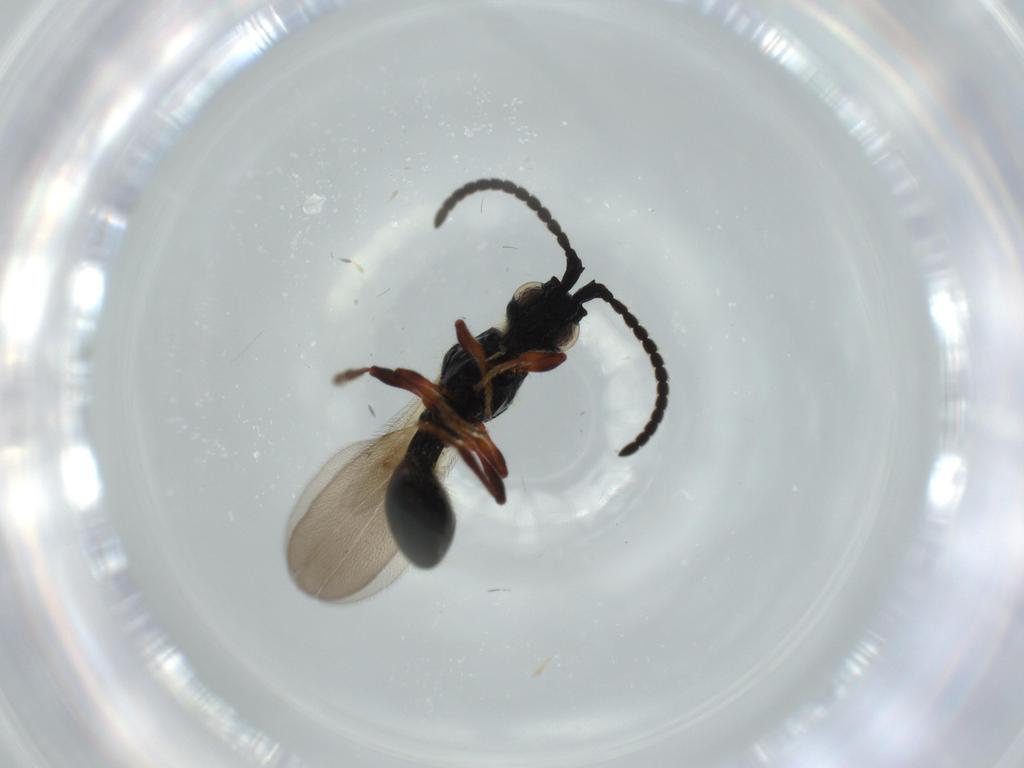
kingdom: Animalia
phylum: Arthropoda
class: Insecta
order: Hymenoptera
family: Diapriidae
